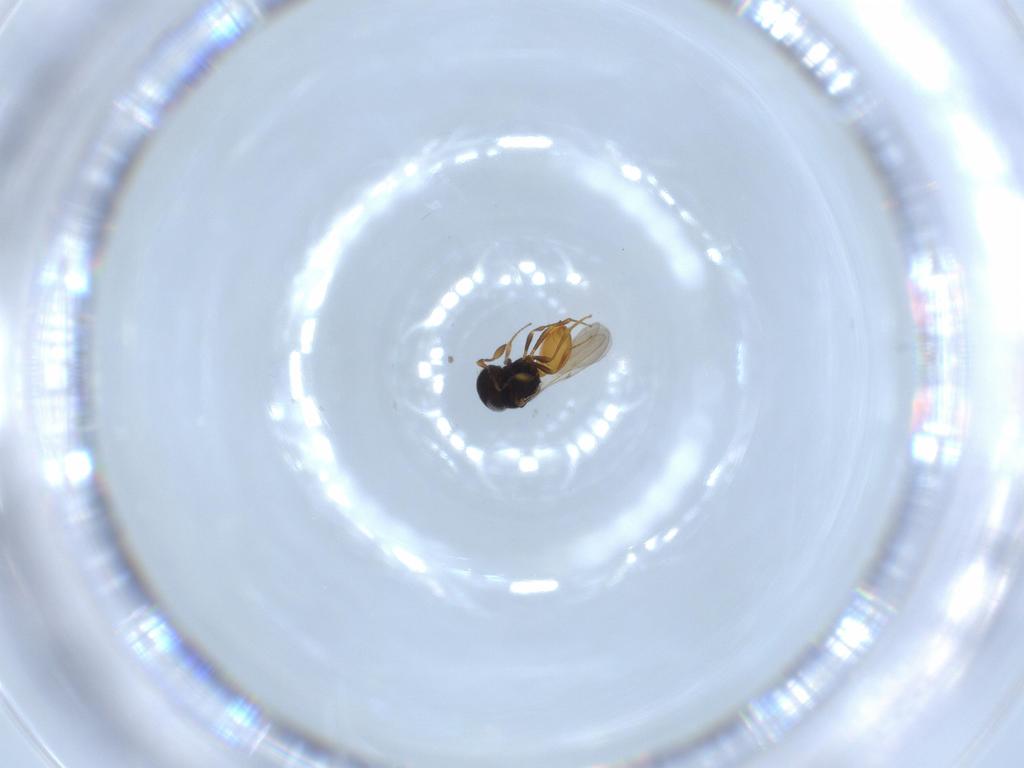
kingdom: Animalia
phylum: Arthropoda
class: Insecta
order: Hymenoptera
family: Scelionidae
